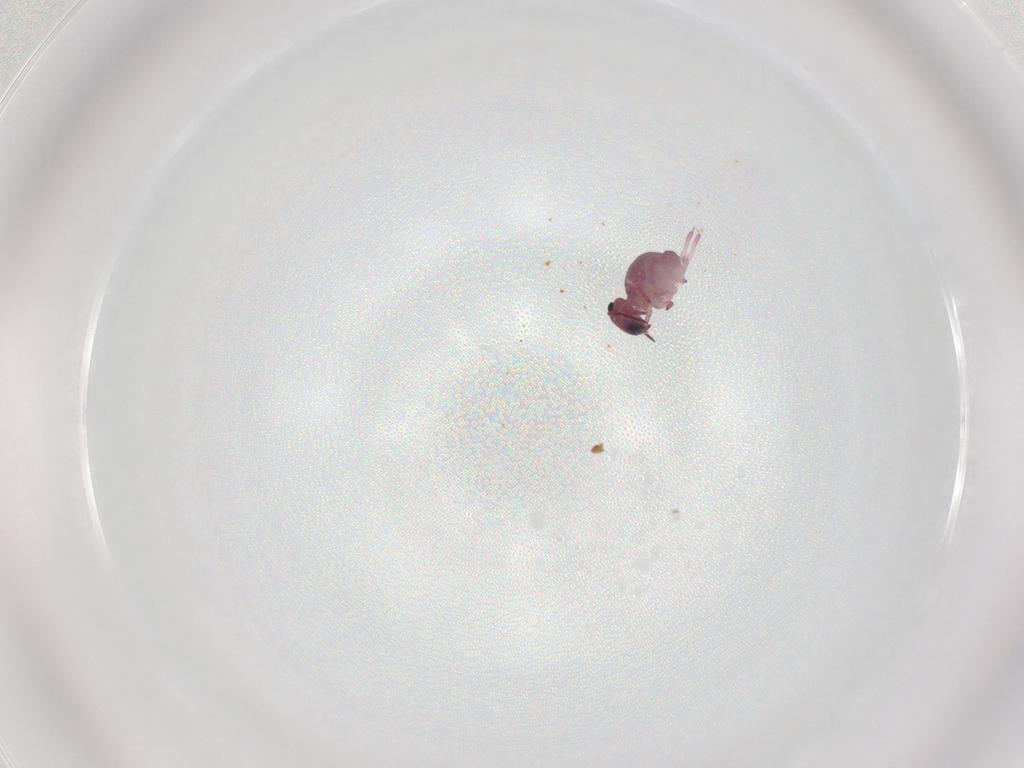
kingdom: Animalia
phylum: Arthropoda
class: Collembola
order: Symphypleona
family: Sminthurididae
